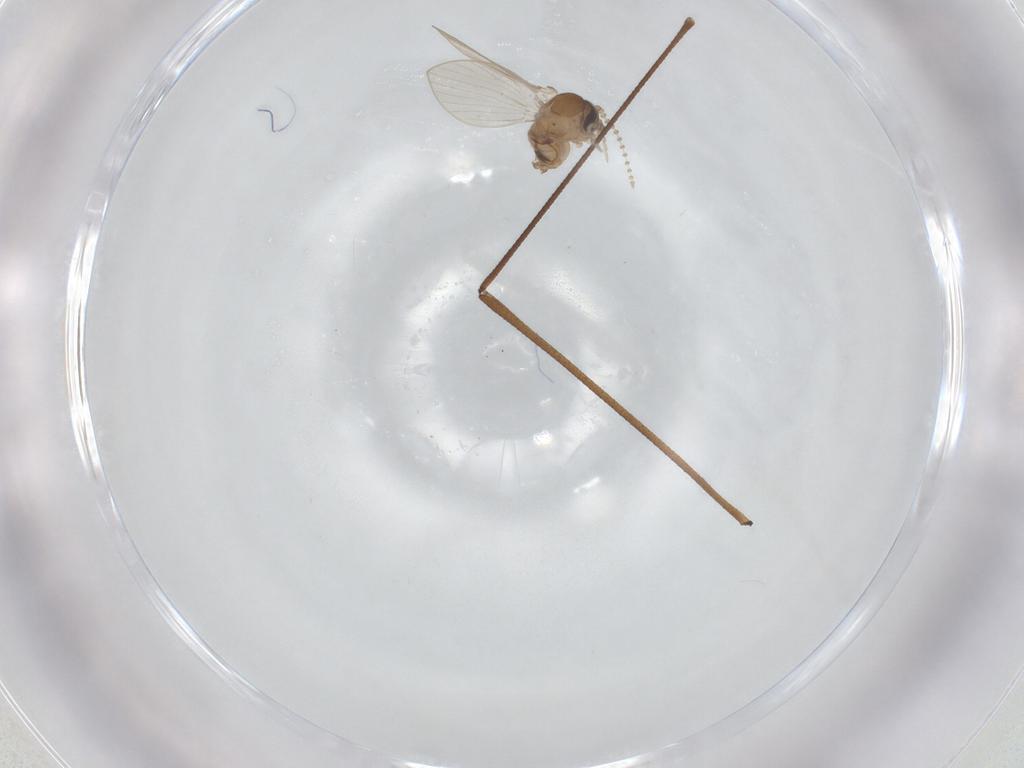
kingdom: Animalia
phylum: Arthropoda
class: Insecta
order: Diptera
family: Psychodidae
